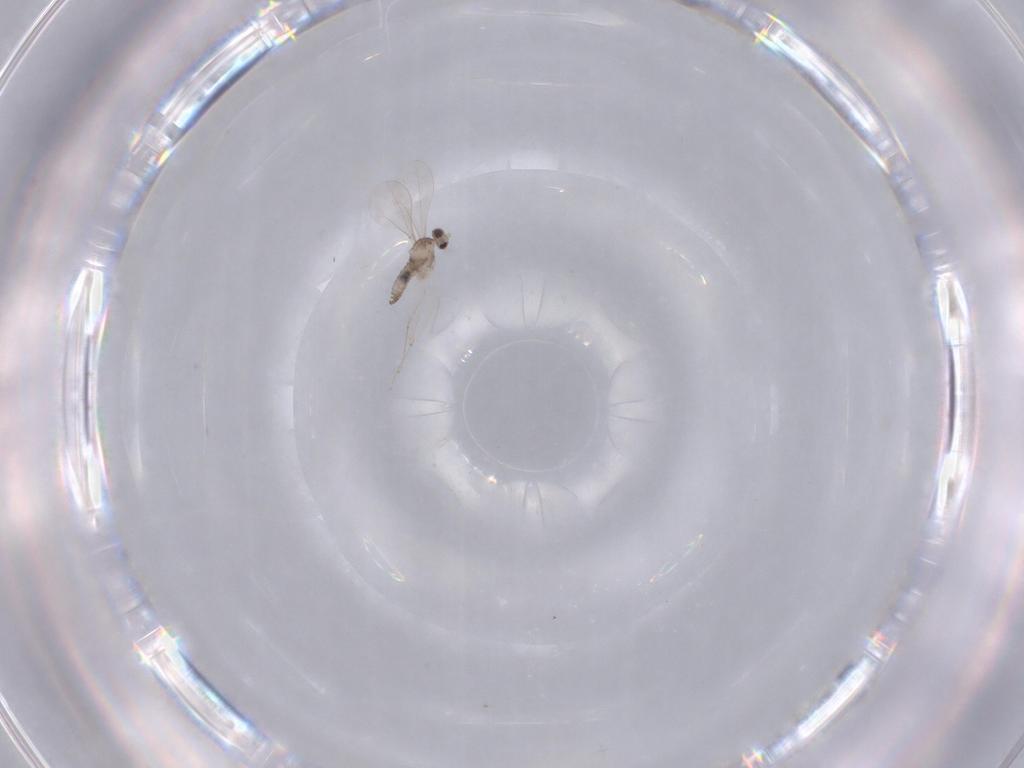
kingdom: Animalia
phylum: Arthropoda
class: Insecta
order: Diptera
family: Cecidomyiidae
